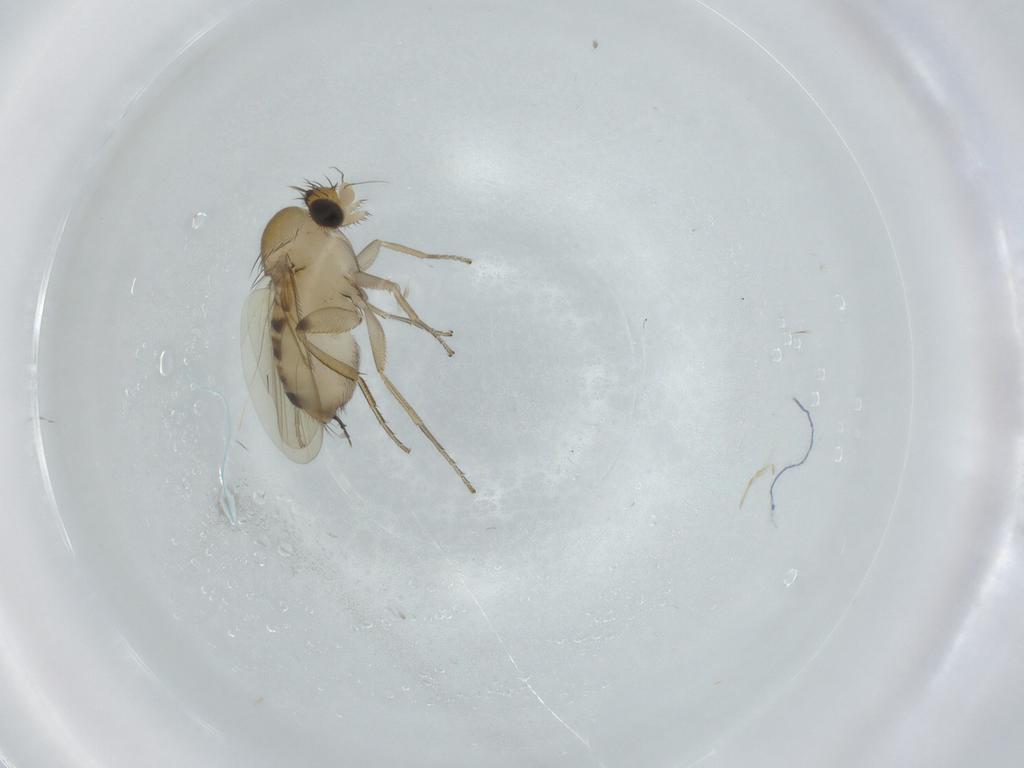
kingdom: Animalia
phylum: Arthropoda
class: Insecta
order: Diptera
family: Phoridae
